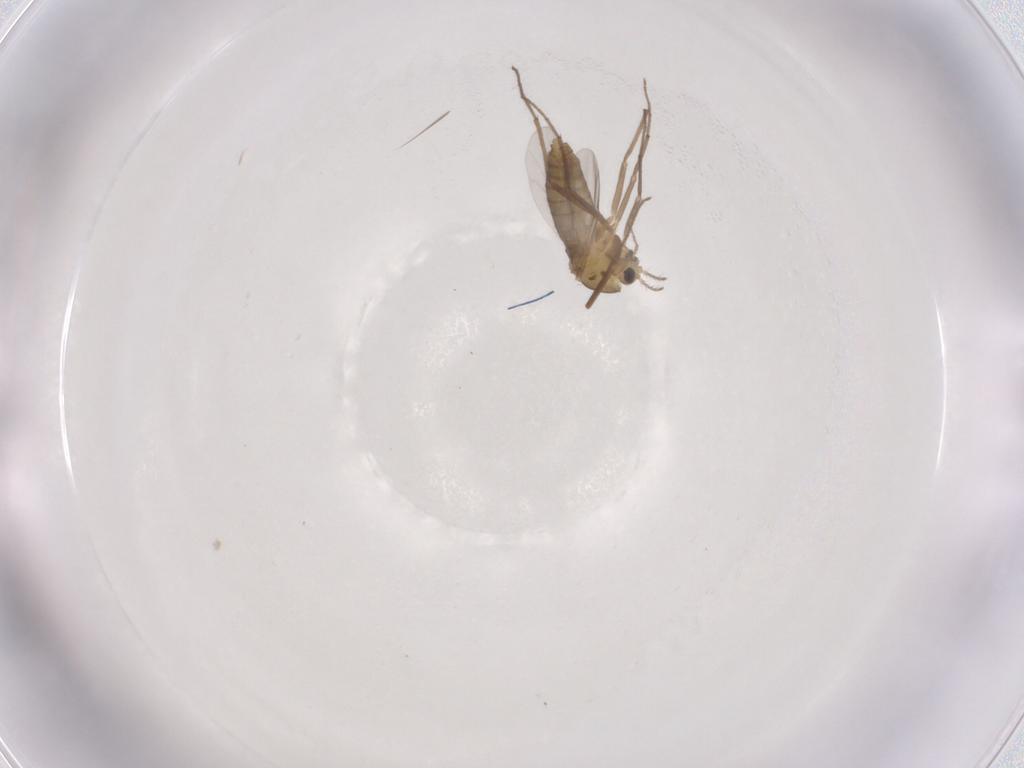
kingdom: Animalia
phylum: Arthropoda
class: Insecta
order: Diptera
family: Chironomidae
